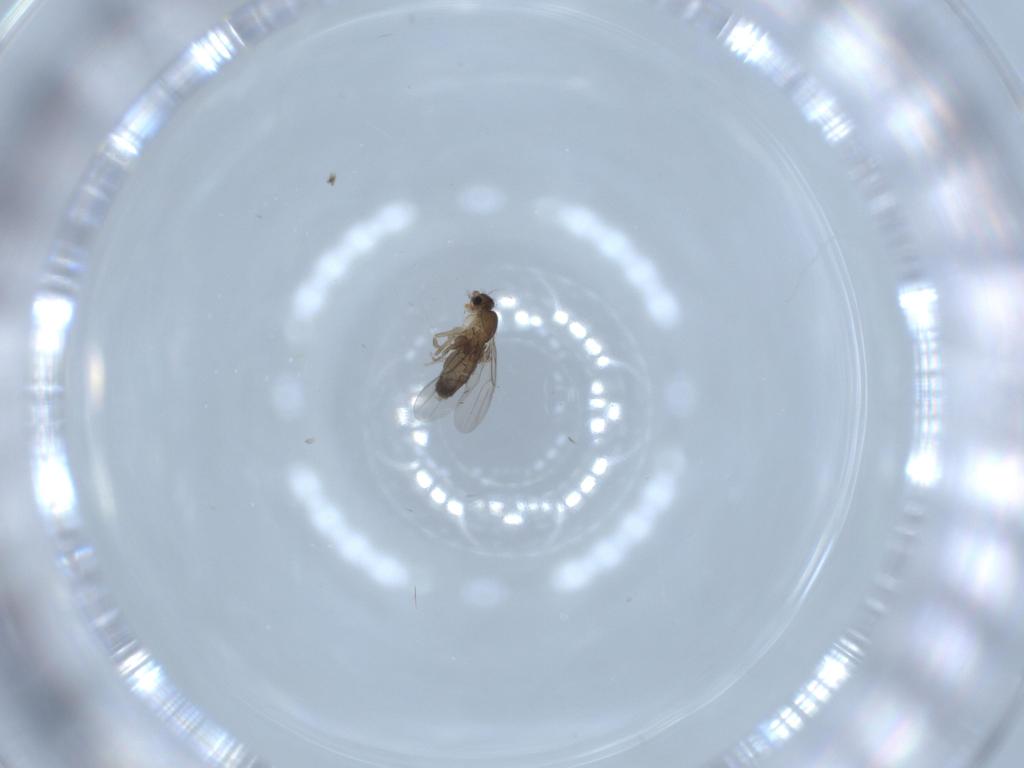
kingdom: Animalia
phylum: Arthropoda
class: Insecta
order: Diptera
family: Phoridae
